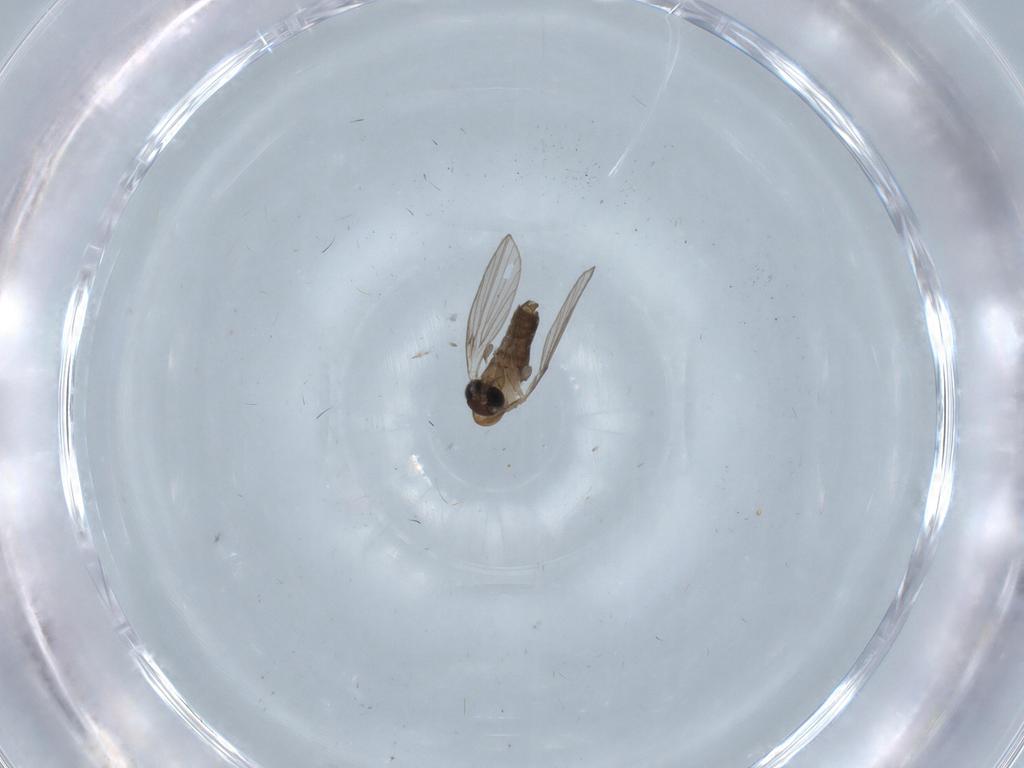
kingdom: Animalia
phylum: Arthropoda
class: Insecta
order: Diptera
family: Chironomidae
